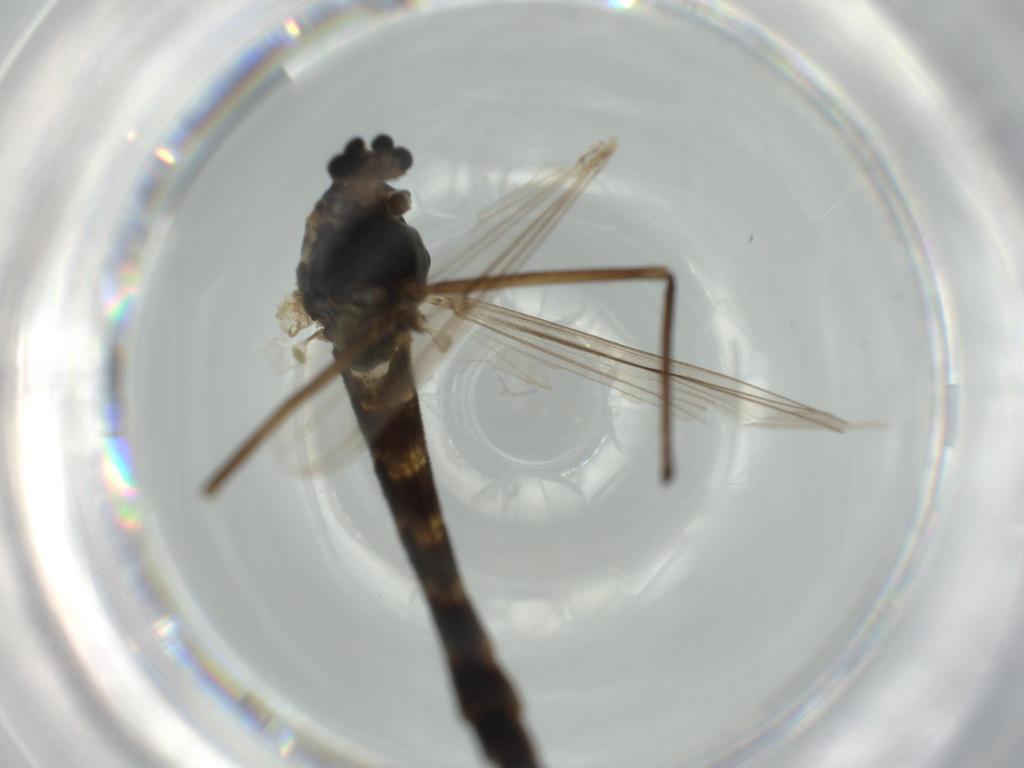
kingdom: Animalia
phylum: Arthropoda
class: Insecta
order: Diptera
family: Sciaridae
